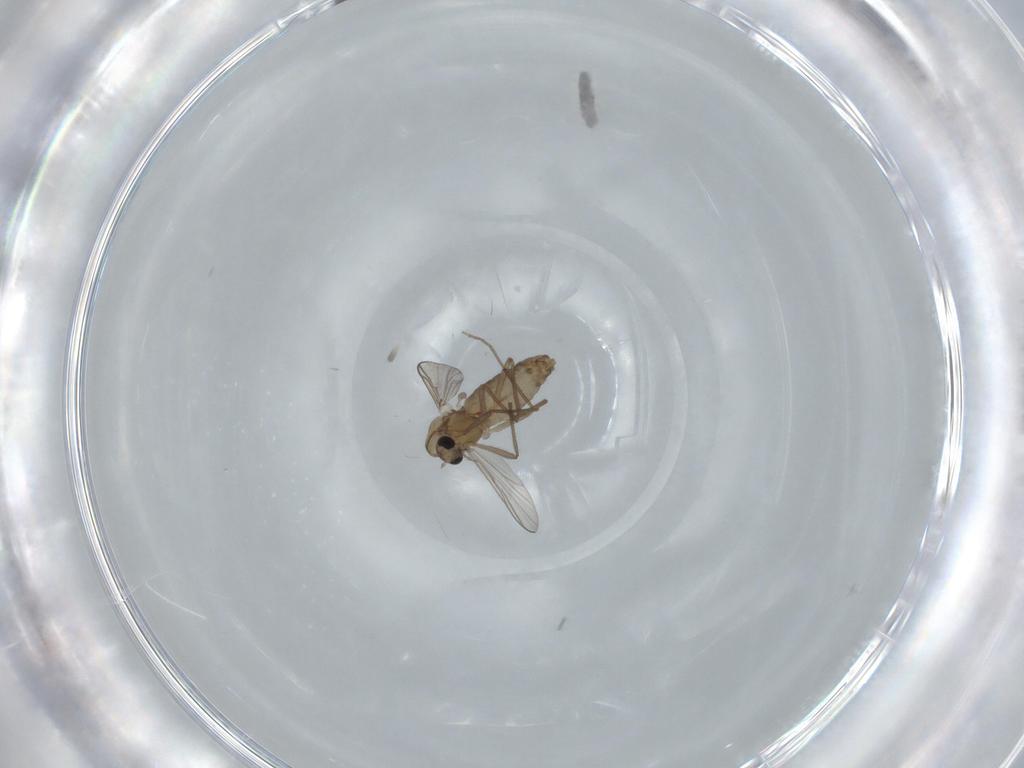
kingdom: Animalia
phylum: Arthropoda
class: Insecta
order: Diptera
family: Chironomidae
